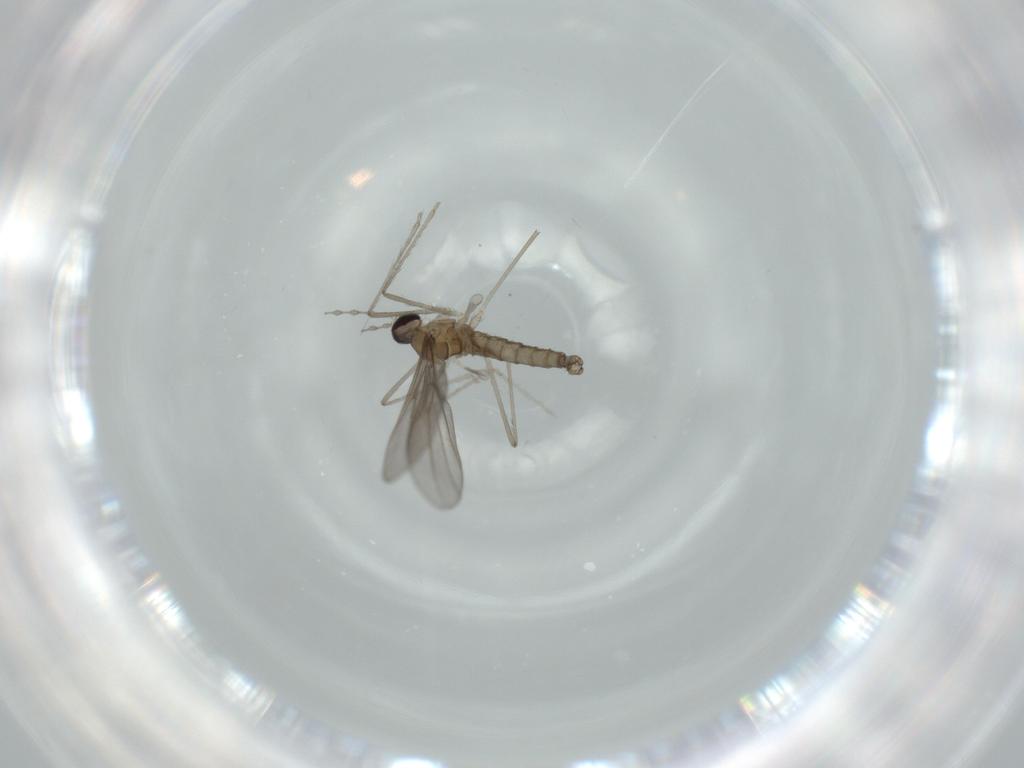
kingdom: Animalia
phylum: Arthropoda
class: Insecta
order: Diptera
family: Cecidomyiidae
